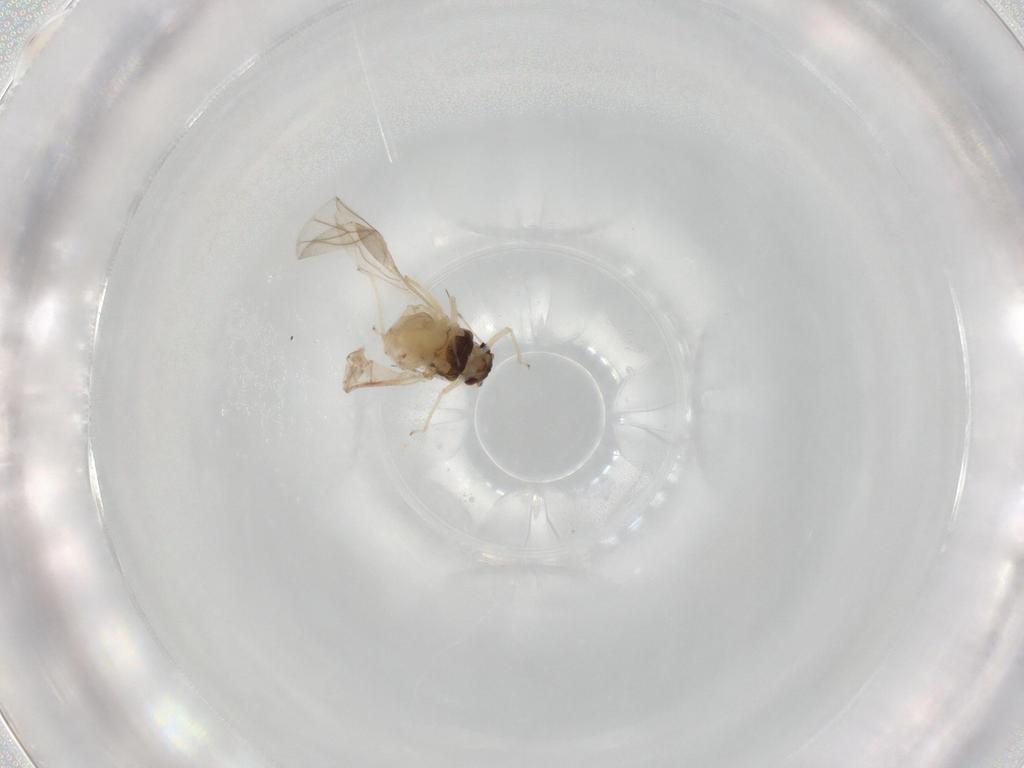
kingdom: Animalia
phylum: Arthropoda
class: Insecta
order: Hemiptera
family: Aphididae
